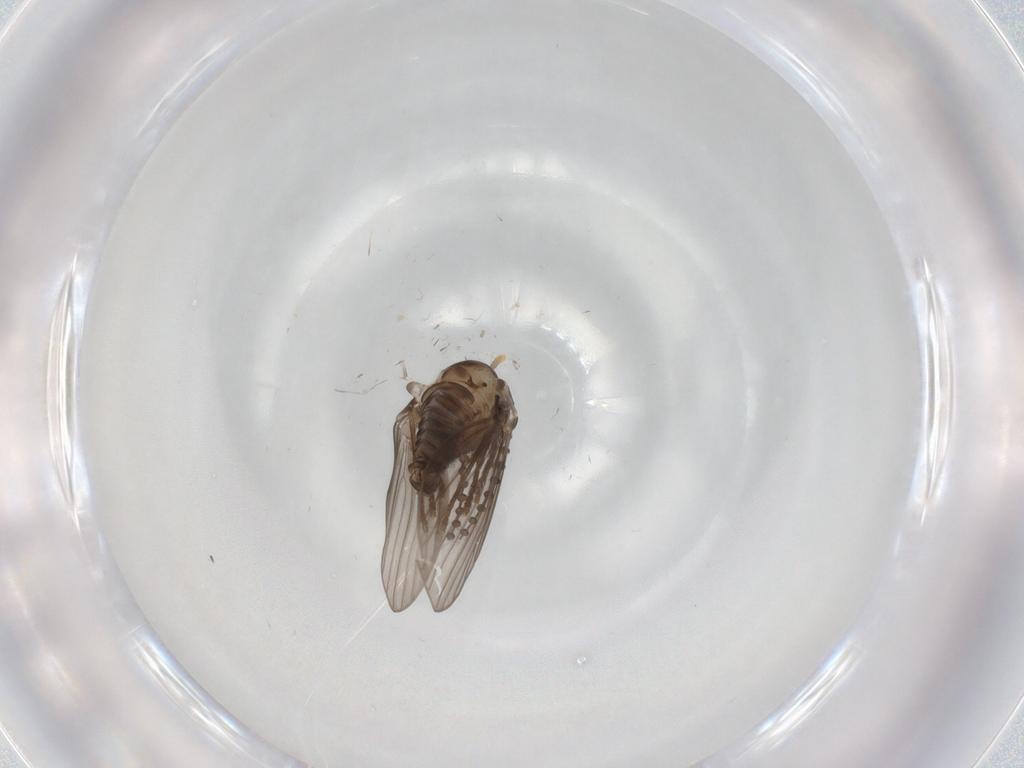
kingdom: Animalia
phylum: Arthropoda
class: Insecta
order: Diptera
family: Psychodidae
